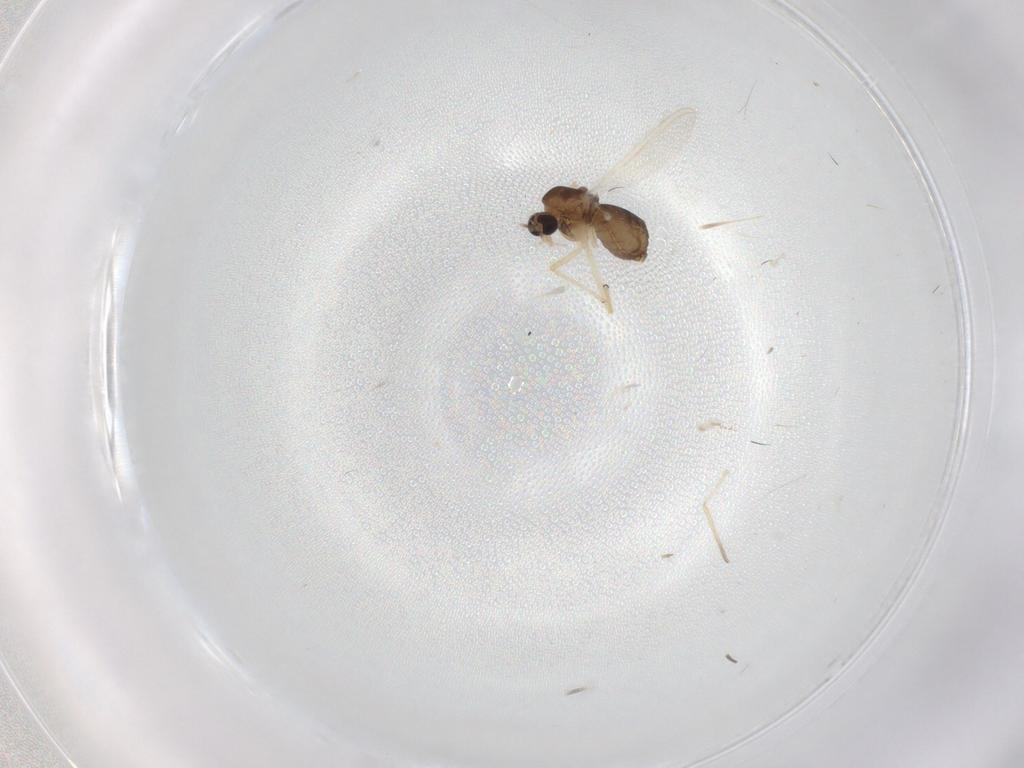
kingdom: Animalia
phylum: Arthropoda
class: Insecta
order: Diptera
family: Chironomidae
